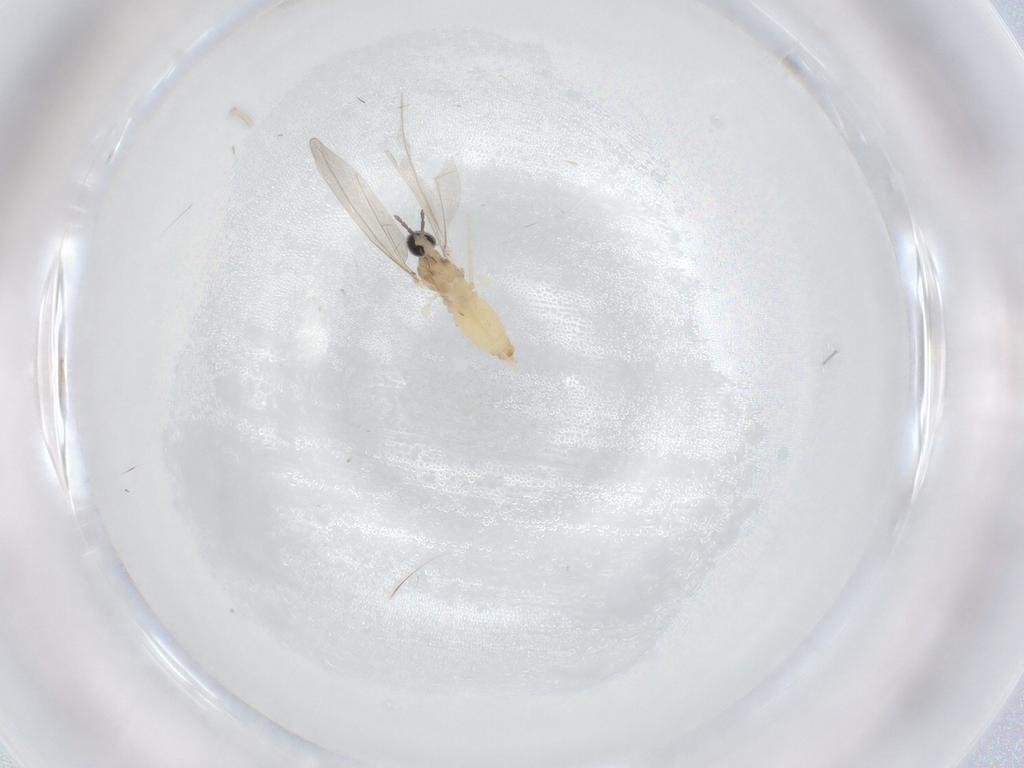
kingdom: Animalia
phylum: Arthropoda
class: Insecta
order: Diptera
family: Cecidomyiidae
